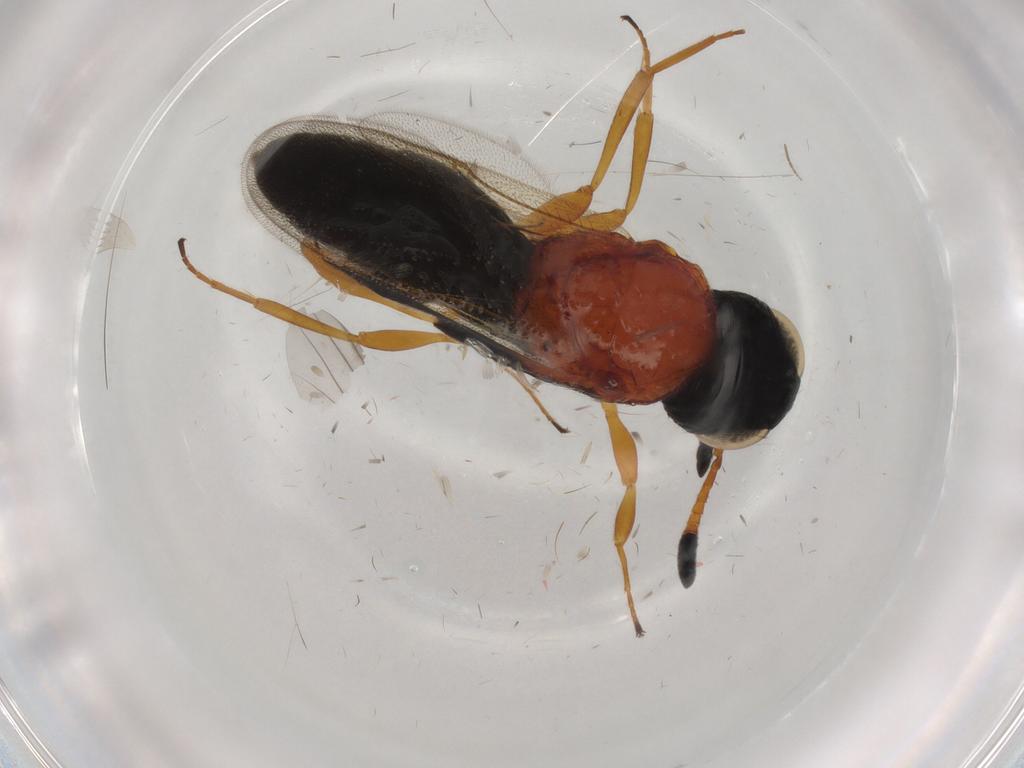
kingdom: Animalia
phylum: Arthropoda
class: Insecta
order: Hymenoptera
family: Scelionidae
